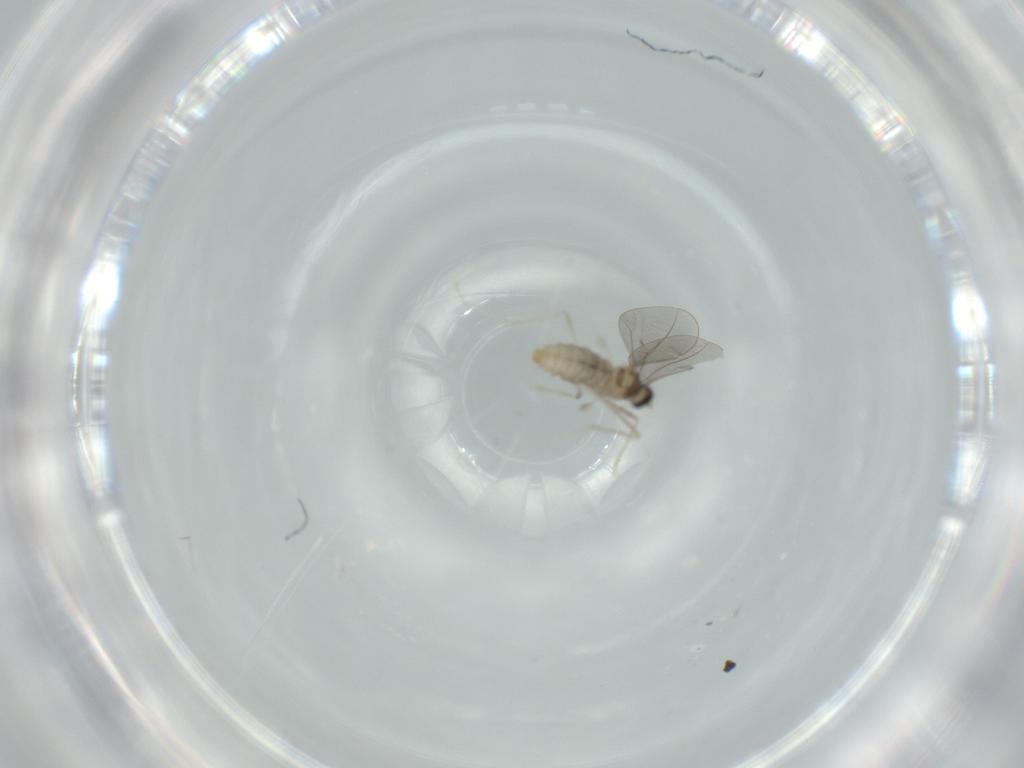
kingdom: Animalia
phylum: Arthropoda
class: Insecta
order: Diptera
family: Cecidomyiidae
